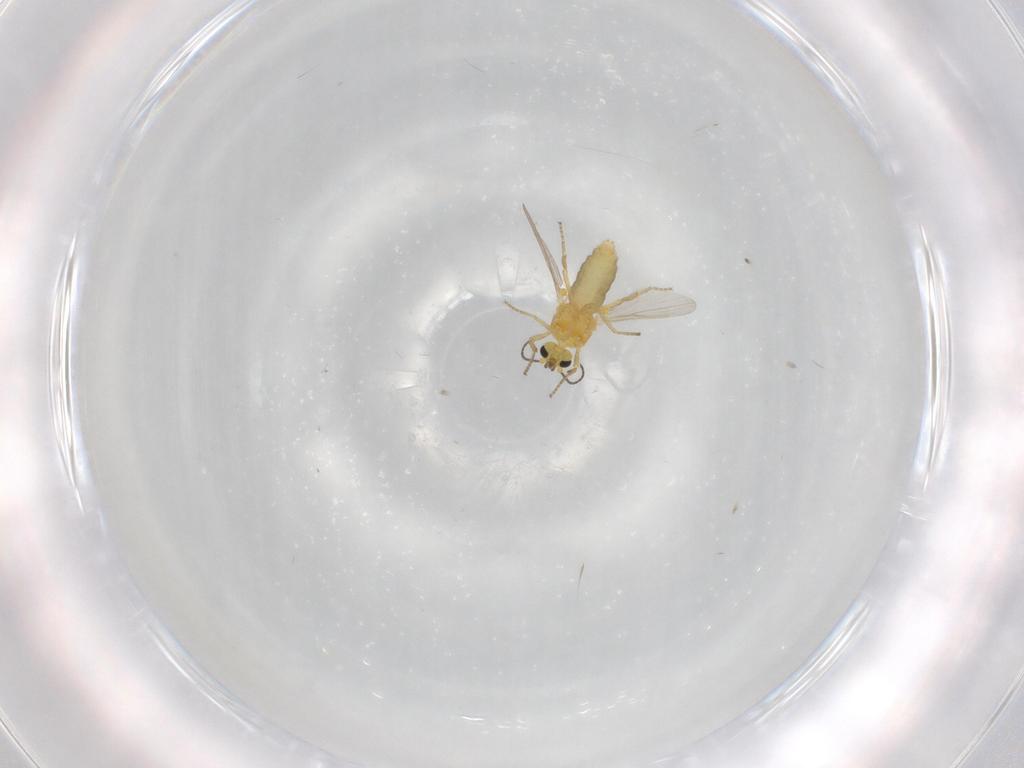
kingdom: Animalia
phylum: Arthropoda
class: Insecta
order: Diptera
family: Ceratopogonidae
